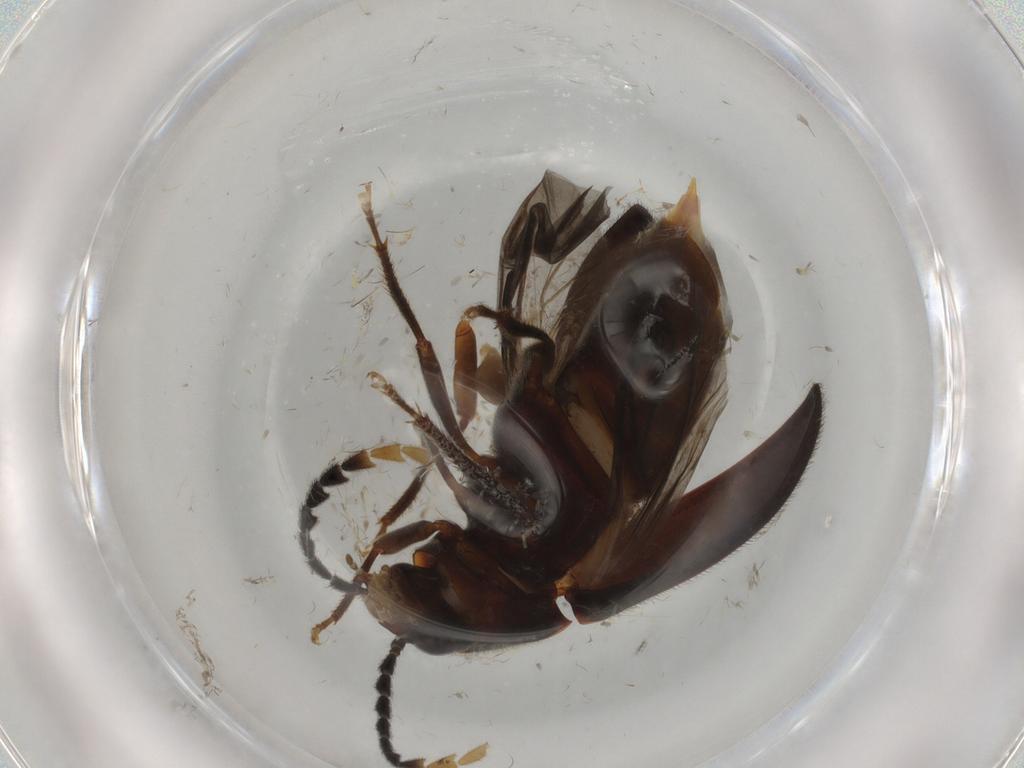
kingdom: Animalia
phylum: Arthropoda
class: Insecta
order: Coleoptera
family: Ptilodactylidae
